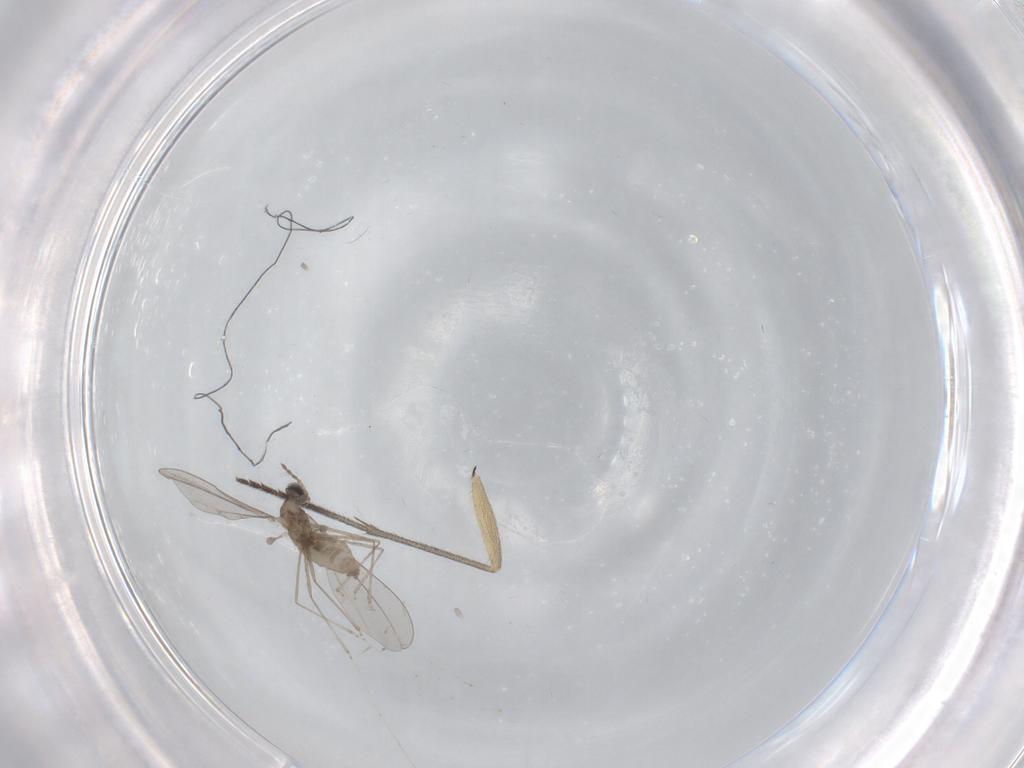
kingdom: Animalia
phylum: Arthropoda
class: Insecta
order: Diptera
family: Sciaridae
